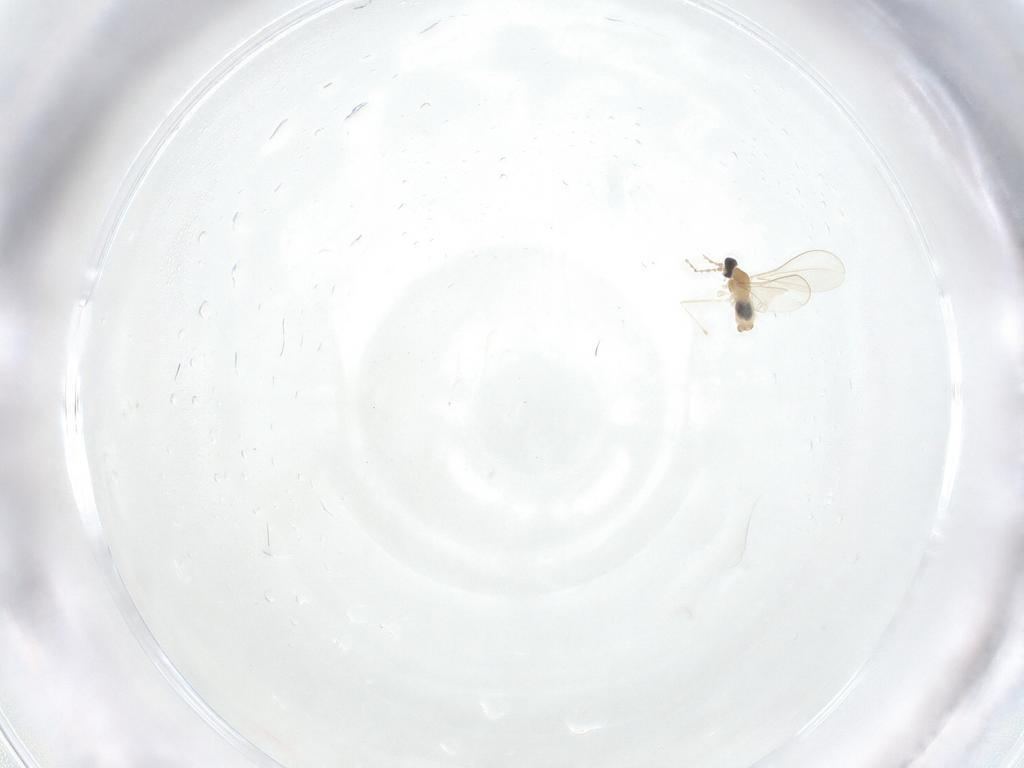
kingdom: Animalia
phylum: Arthropoda
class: Insecta
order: Diptera
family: Cecidomyiidae
